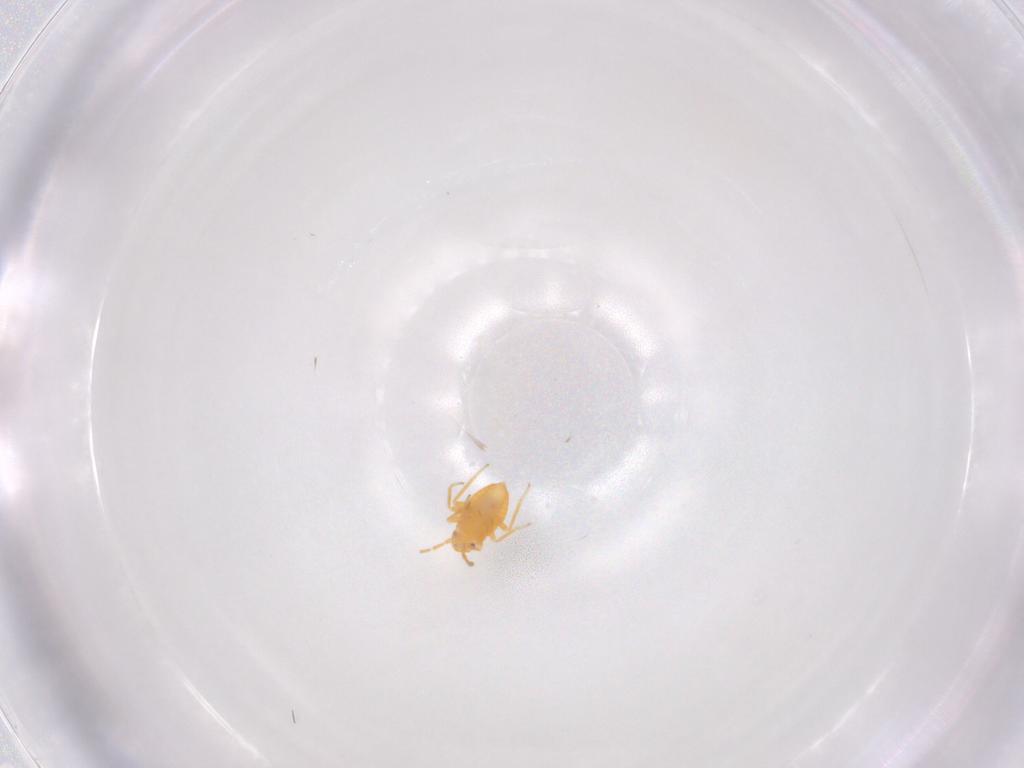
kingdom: Animalia
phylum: Arthropoda
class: Insecta
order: Hemiptera
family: Miridae
